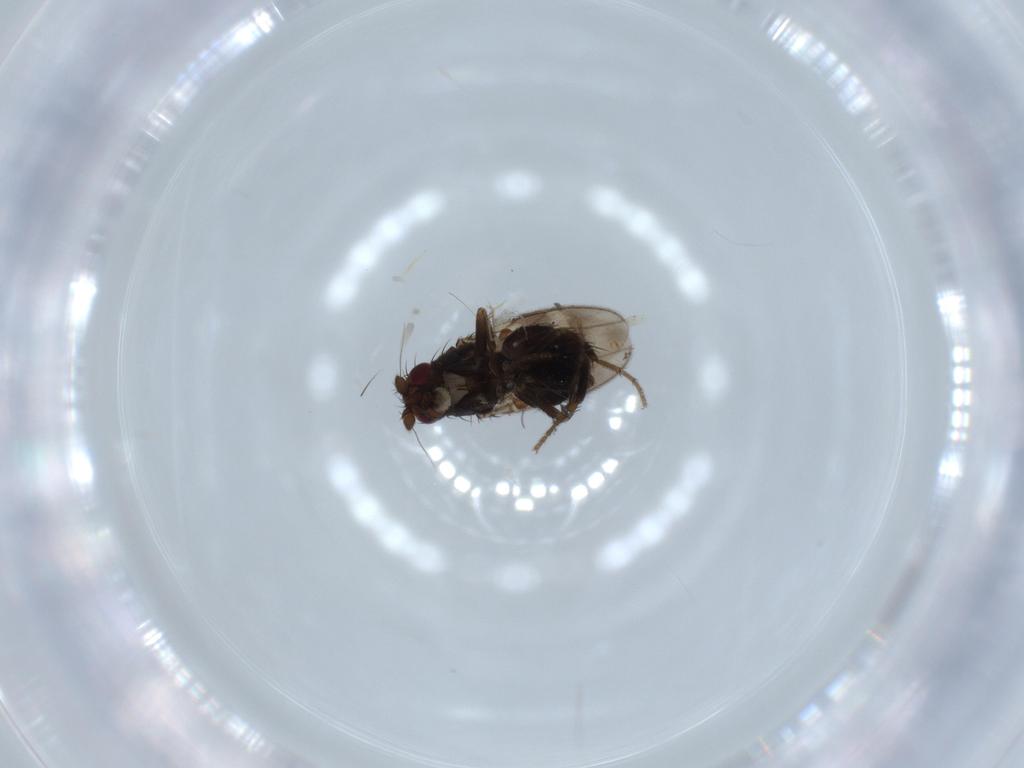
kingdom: Animalia
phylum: Arthropoda
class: Insecta
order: Diptera
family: Sphaeroceridae
